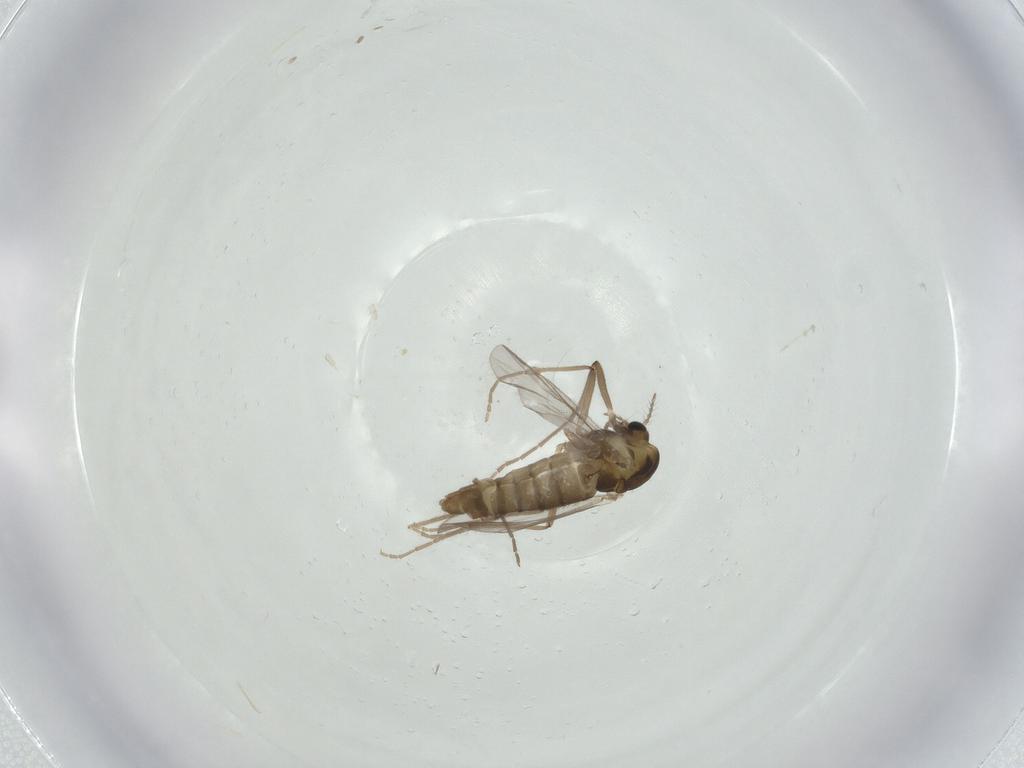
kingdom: Animalia
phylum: Arthropoda
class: Insecta
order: Diptera
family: Chironomidae
